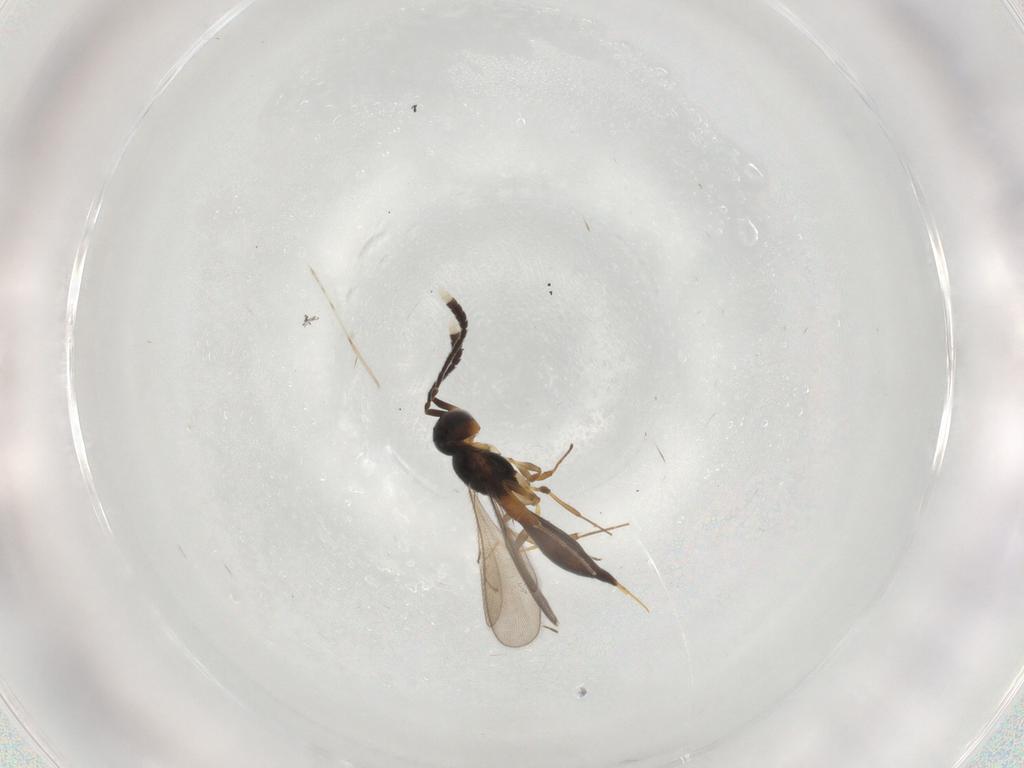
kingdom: Animalia
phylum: Arthropoda
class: Insecta
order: Hymenoptera
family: Scelionidae
